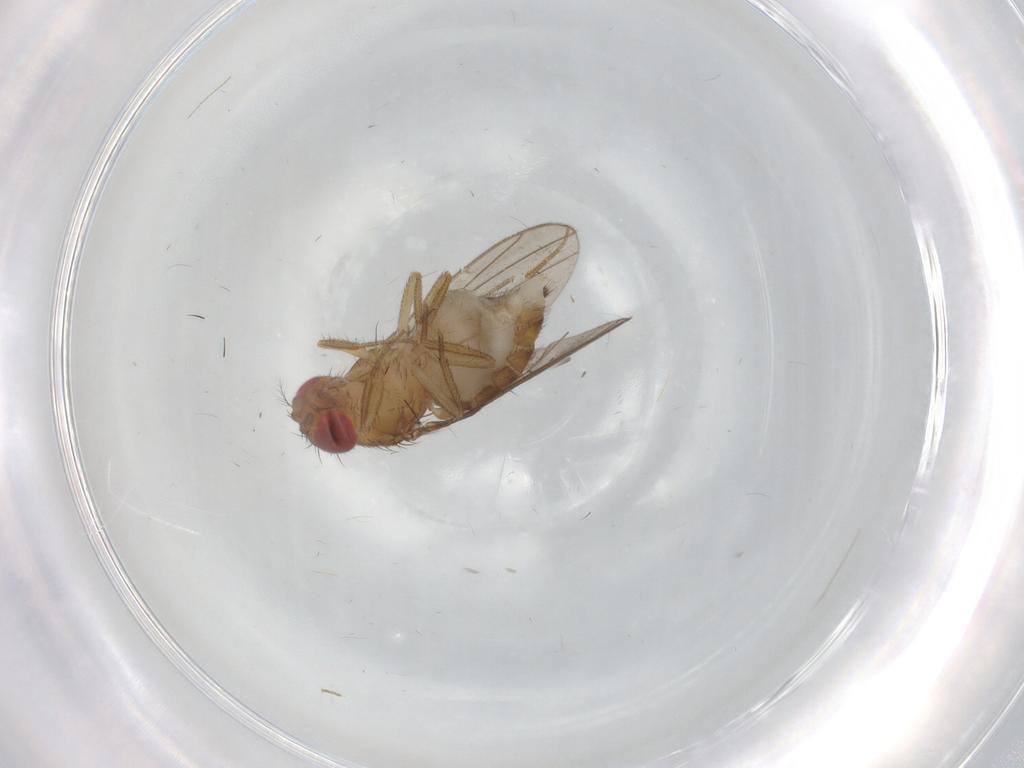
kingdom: Animalia
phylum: Arthropoda
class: Insecta
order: Diptera
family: Drosophilidae
